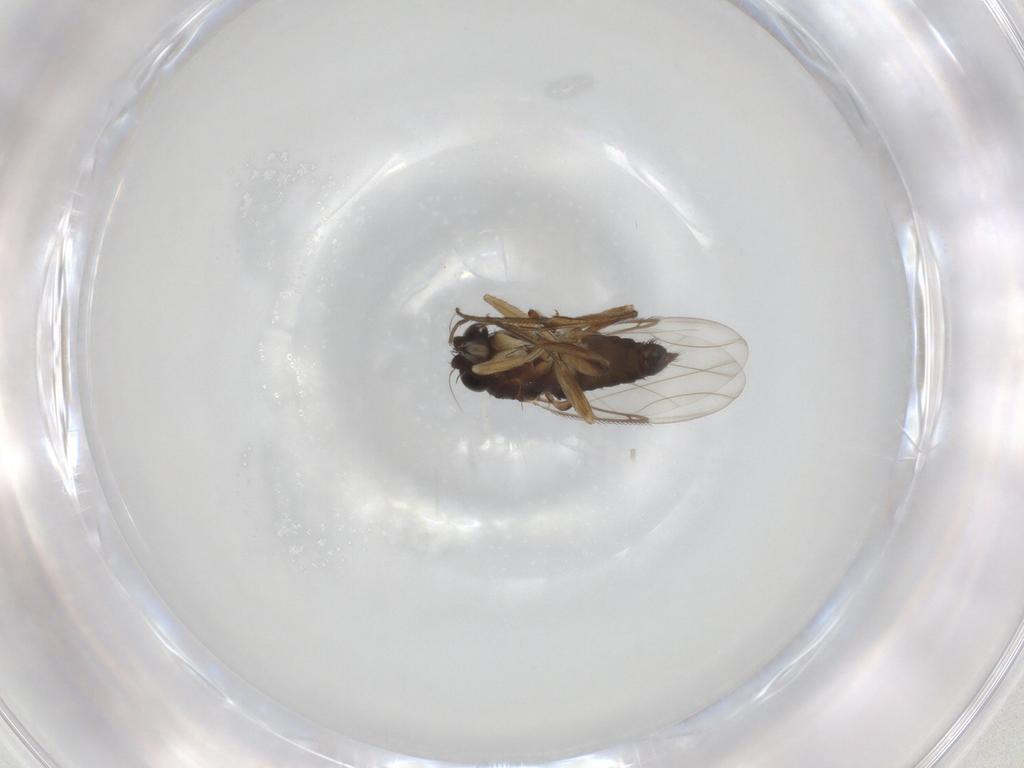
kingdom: Animalia
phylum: Arthropoda
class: Insecta
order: Diptera
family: Phoridae
